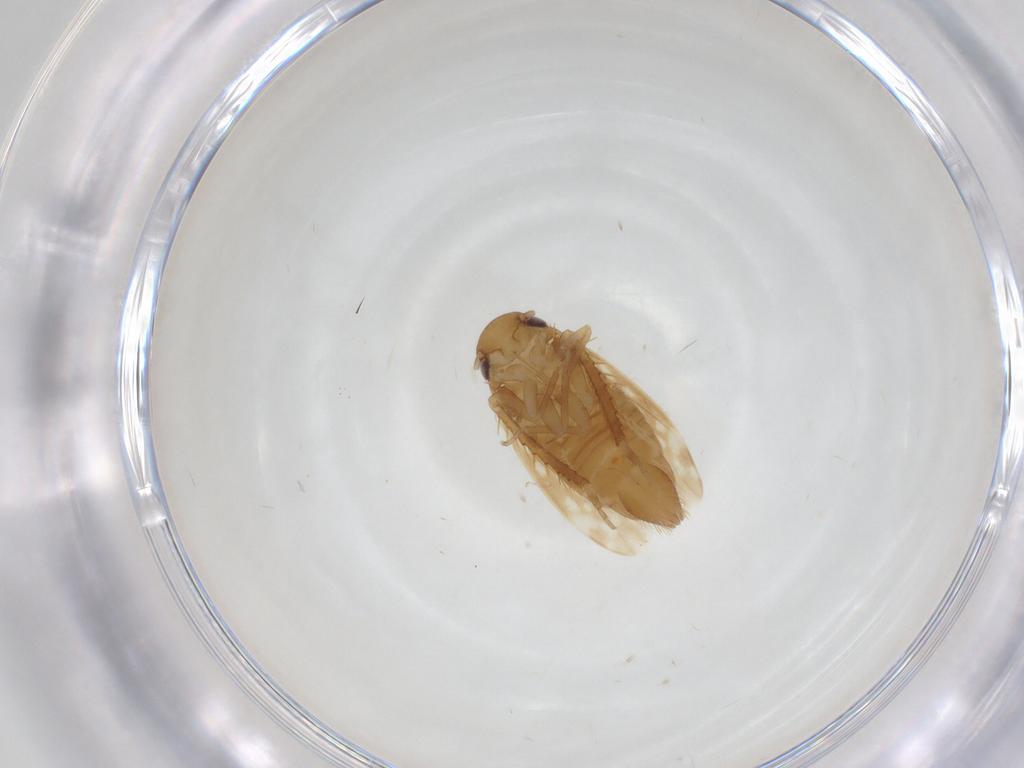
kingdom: Animalia
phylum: Arthropoda
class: Insecta
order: Hemiptera
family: Cicadellidae
